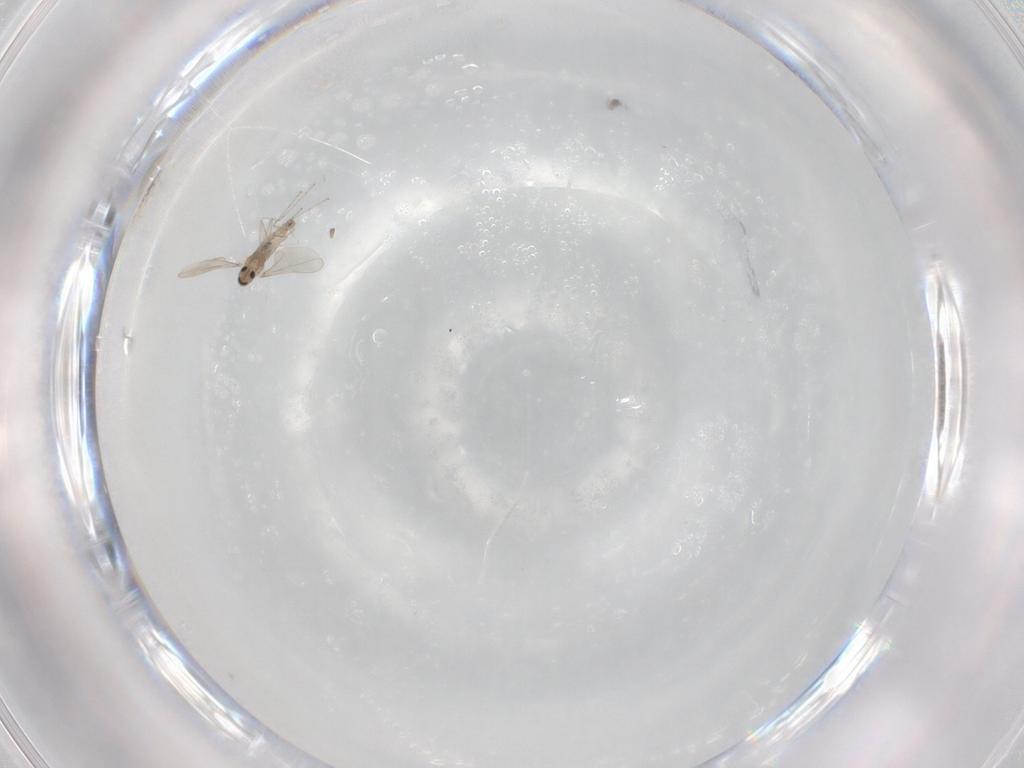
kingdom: Animalia
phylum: Arthropoda
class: Insecta
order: Diptera
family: Cecidomyiidae
